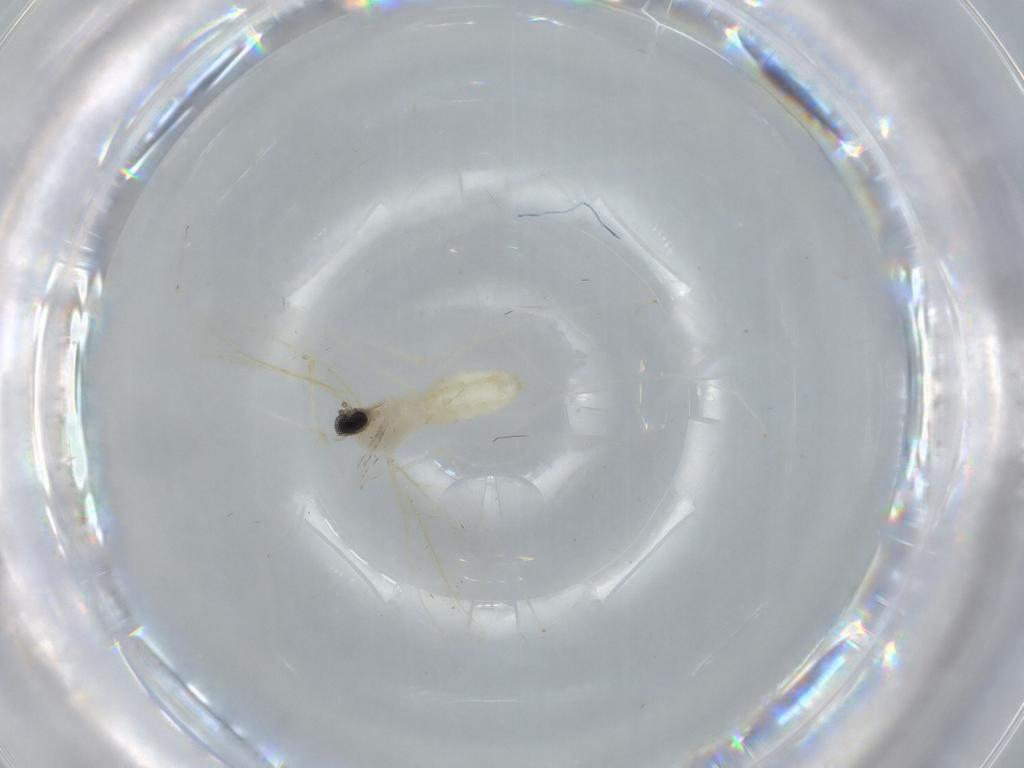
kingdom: Animalia
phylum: Arthropoda
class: Insecta
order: Diptera
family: Cecidomyiidae
